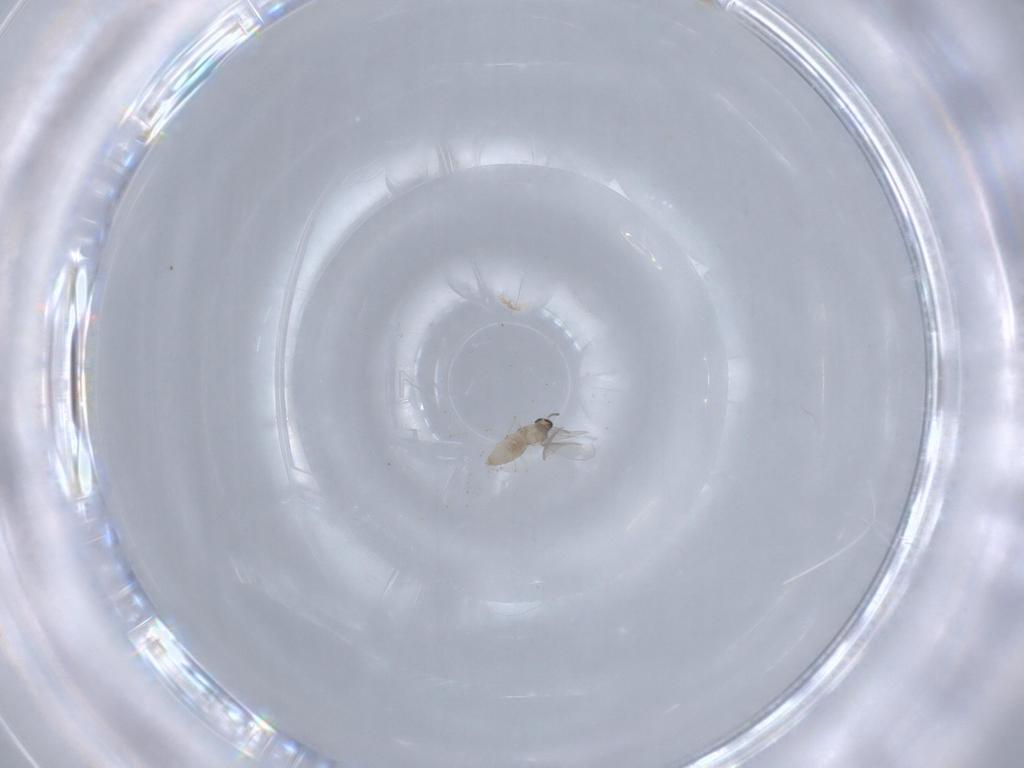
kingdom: Animalia
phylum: Arthropoda
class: Insecta
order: Diptera
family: Cecidomyiidae
